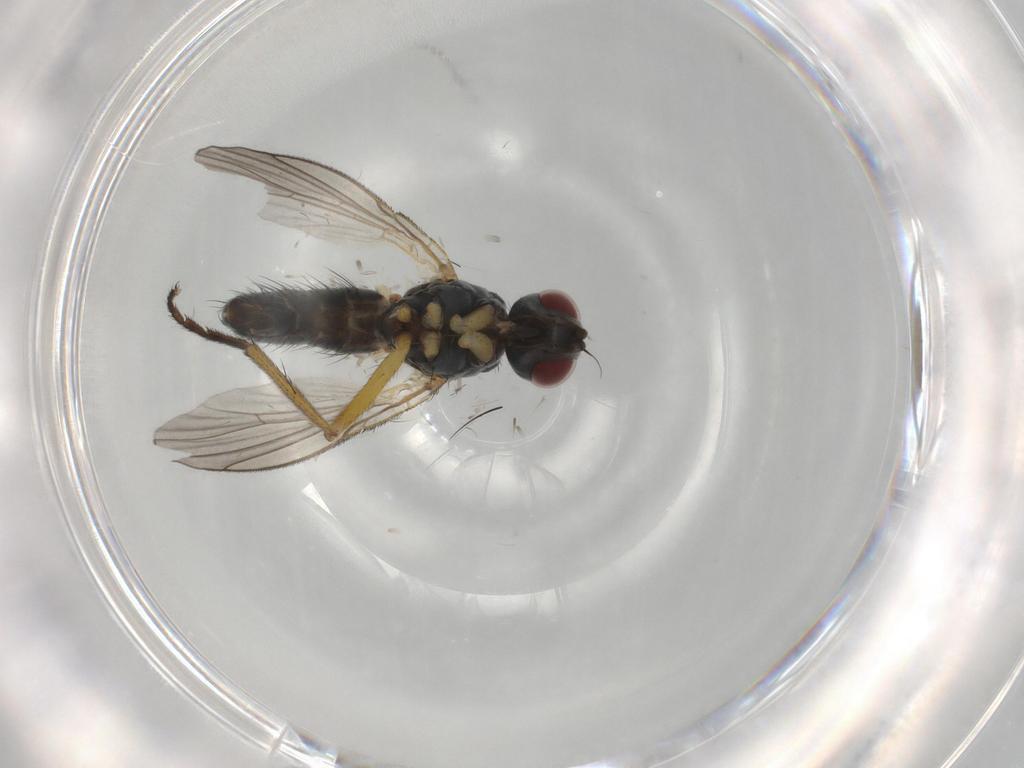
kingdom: Animalia
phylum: Arthropoda
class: Insecta
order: Diptera
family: Muscidae
